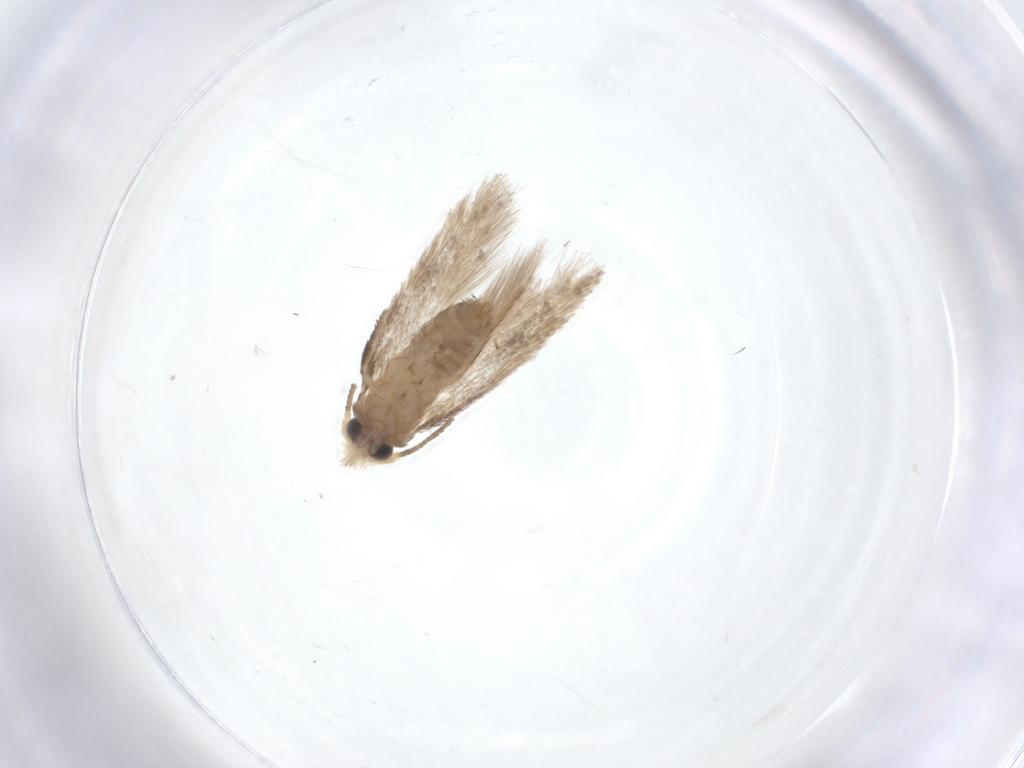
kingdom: Animalia
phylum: Arthropoda
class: Insecta
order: Lepidoptera
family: Nepticulidae
